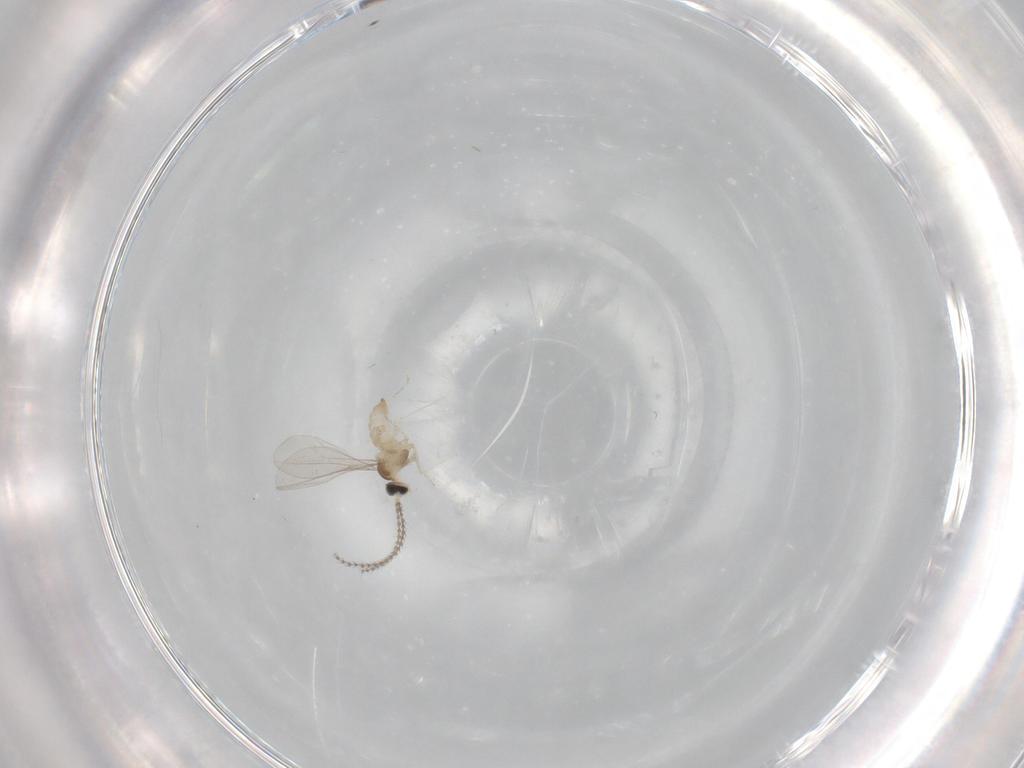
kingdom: Animalia
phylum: Arthropoda
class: Insecta
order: Diptera
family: Cecidomyiidae
